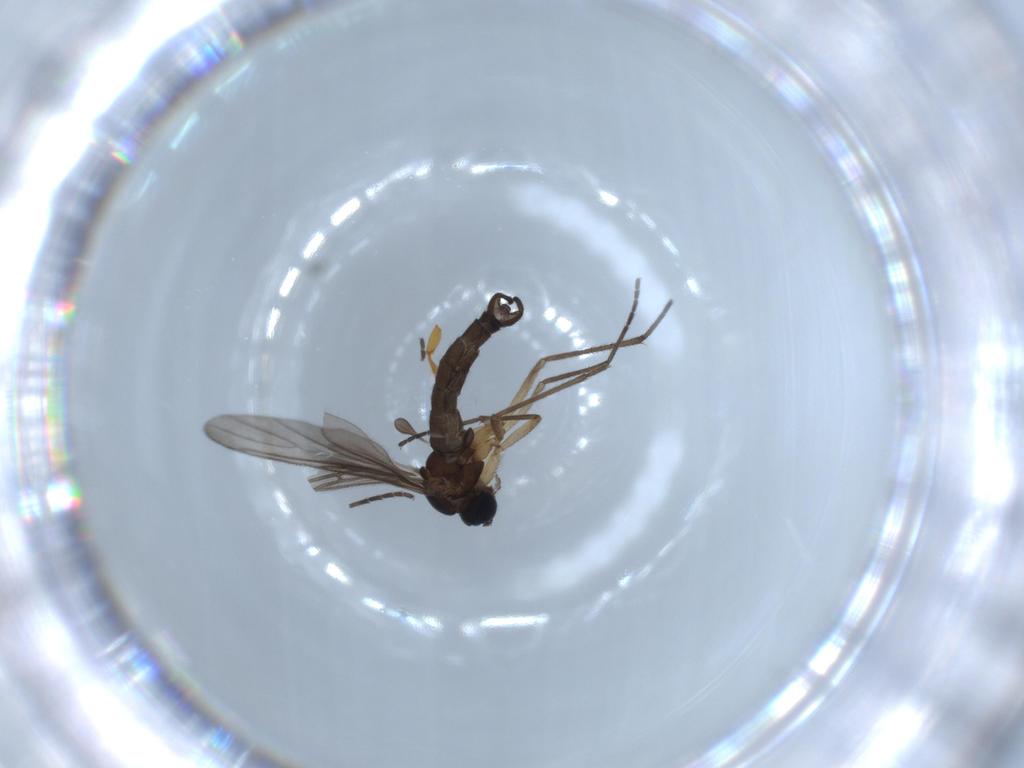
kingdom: Animalia
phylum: Arthropoda
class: Insecta
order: Diptera
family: Sciaridae
